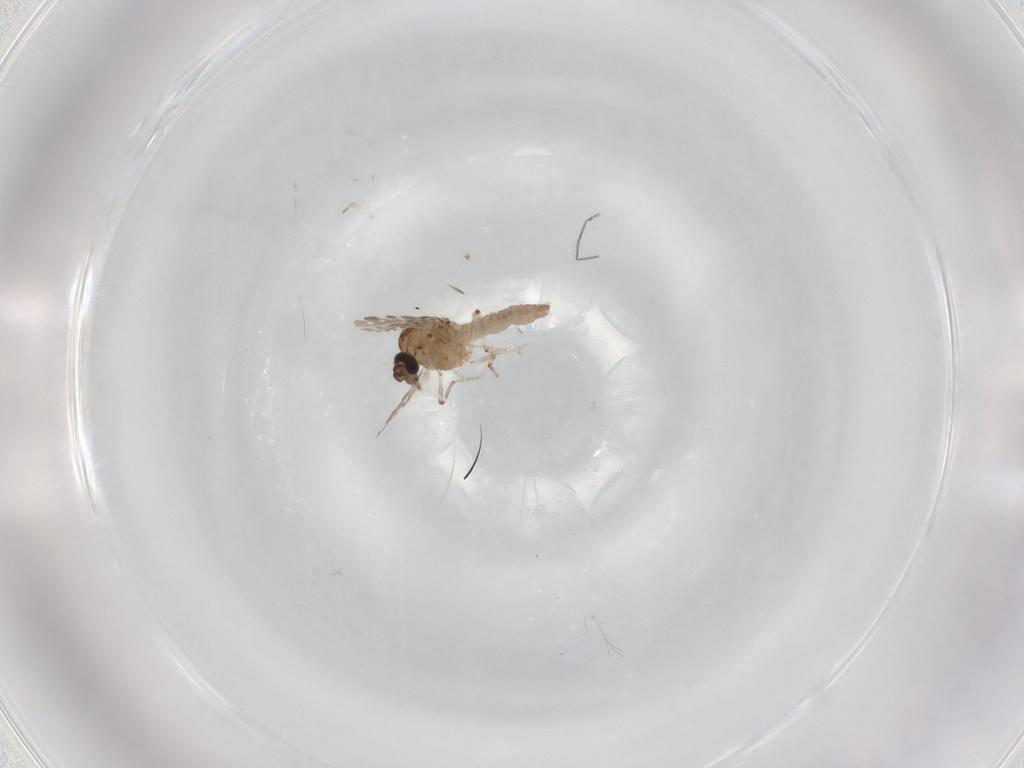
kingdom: Animalia
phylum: Arthropoda
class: Insecta
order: Diptera
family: Ceratopogonidae
